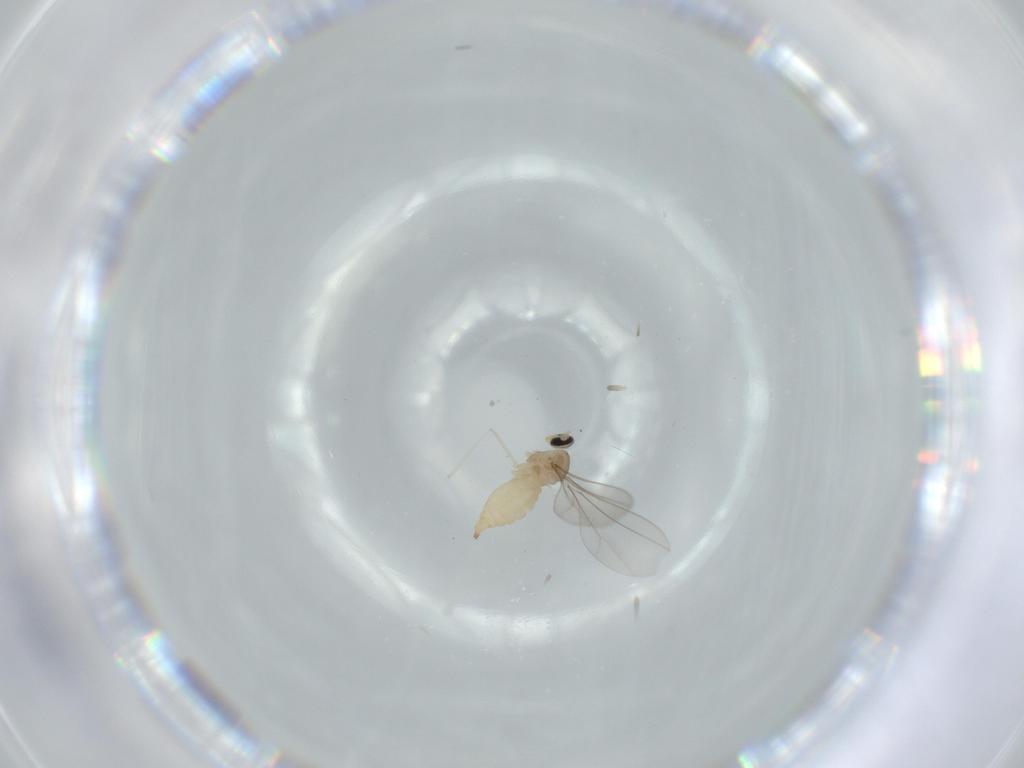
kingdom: Animalia
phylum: Arthropoda
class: Insecta
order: Diptera
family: Cecidomyiidae
